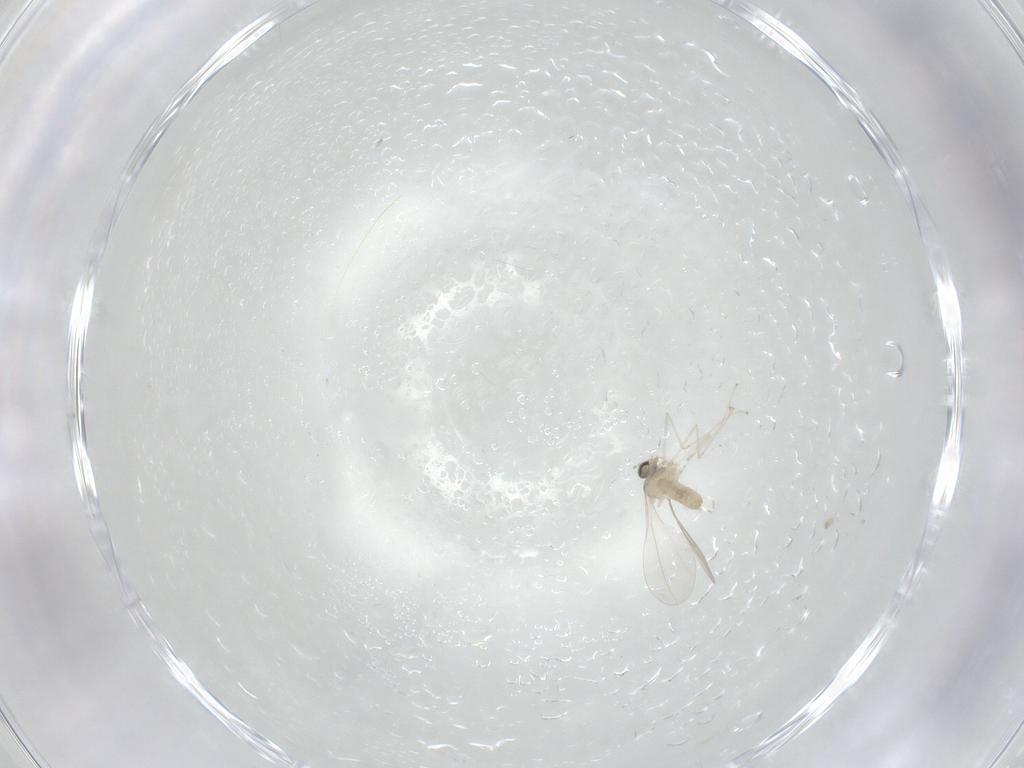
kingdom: Animalia
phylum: Arthropoda
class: Insecta
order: Diptera
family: Cecidomyiidae
